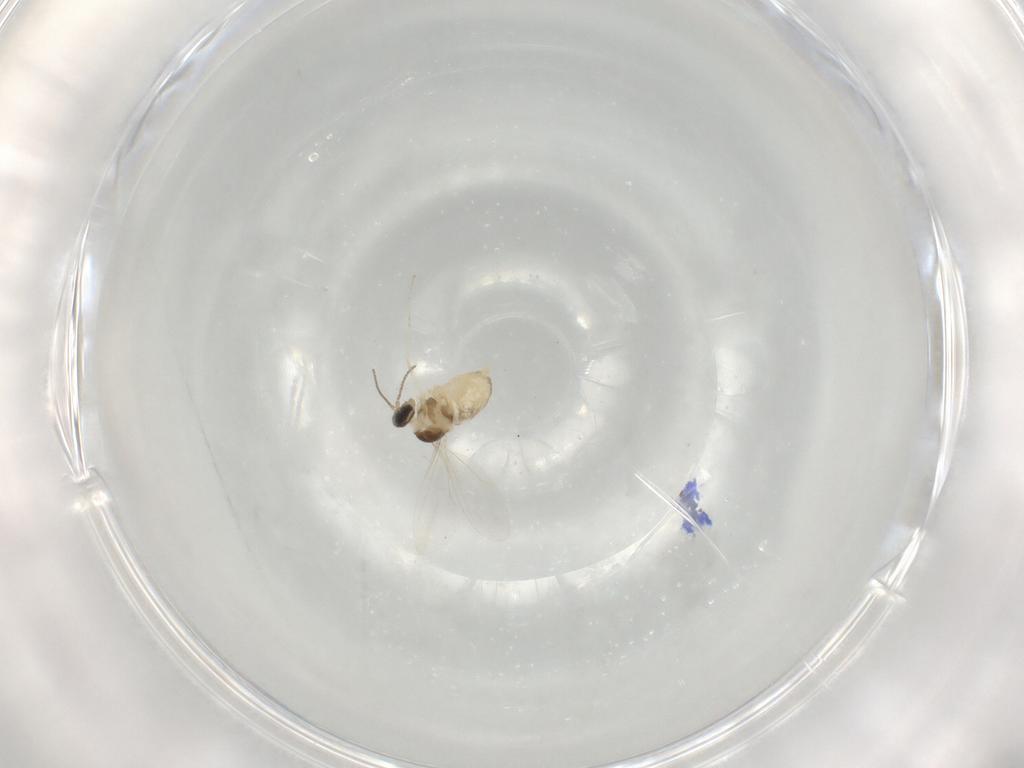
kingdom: Animalia
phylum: Arthropoda
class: Insecta
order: Diptera
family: Cecidomyiidae
